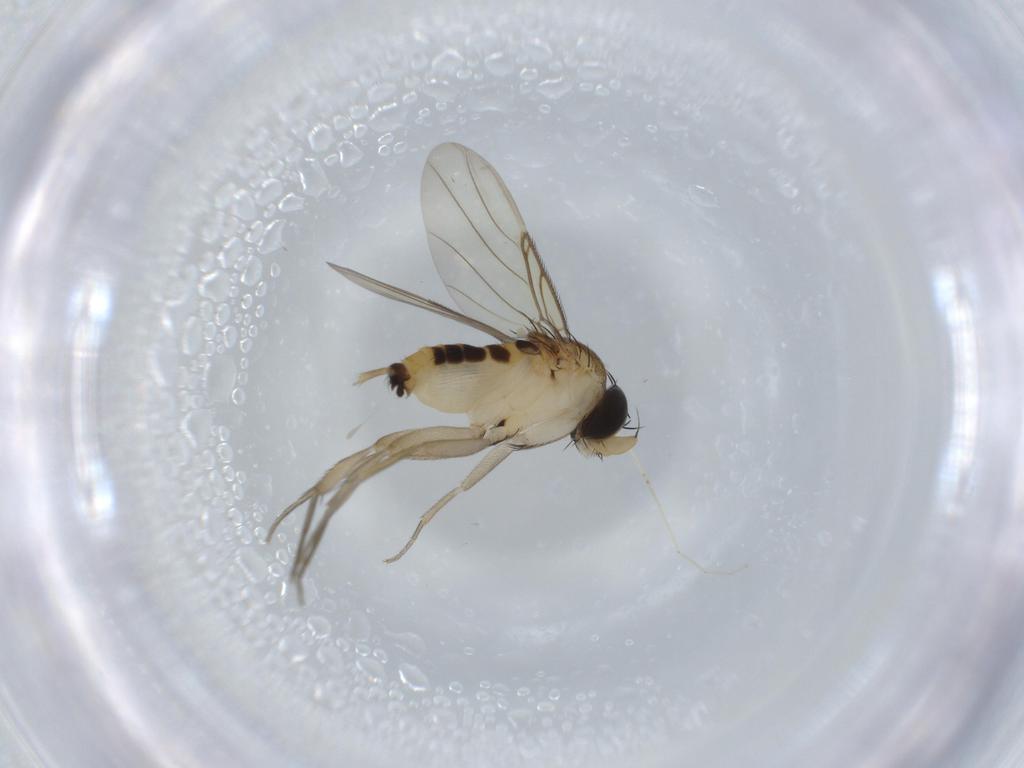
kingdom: Animalia
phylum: Arthropoda
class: Insecta
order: Diptera
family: Phoridae
